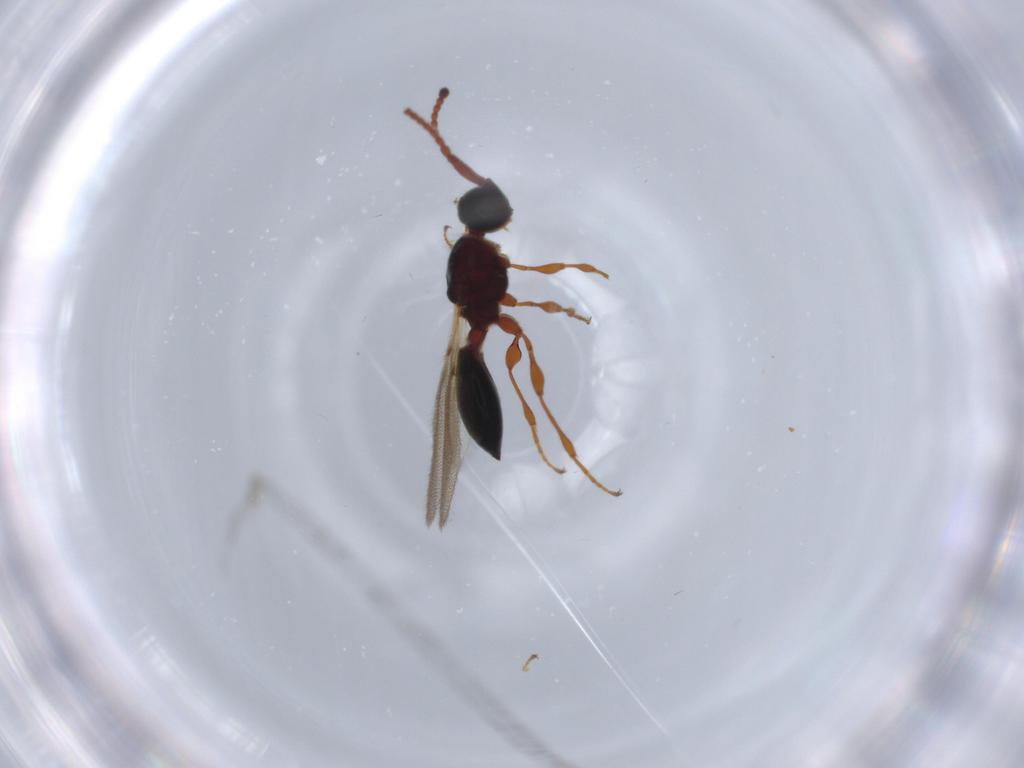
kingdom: Animalia
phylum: Arthropoda
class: Insecta
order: Hymenoptera
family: Diapriidae
